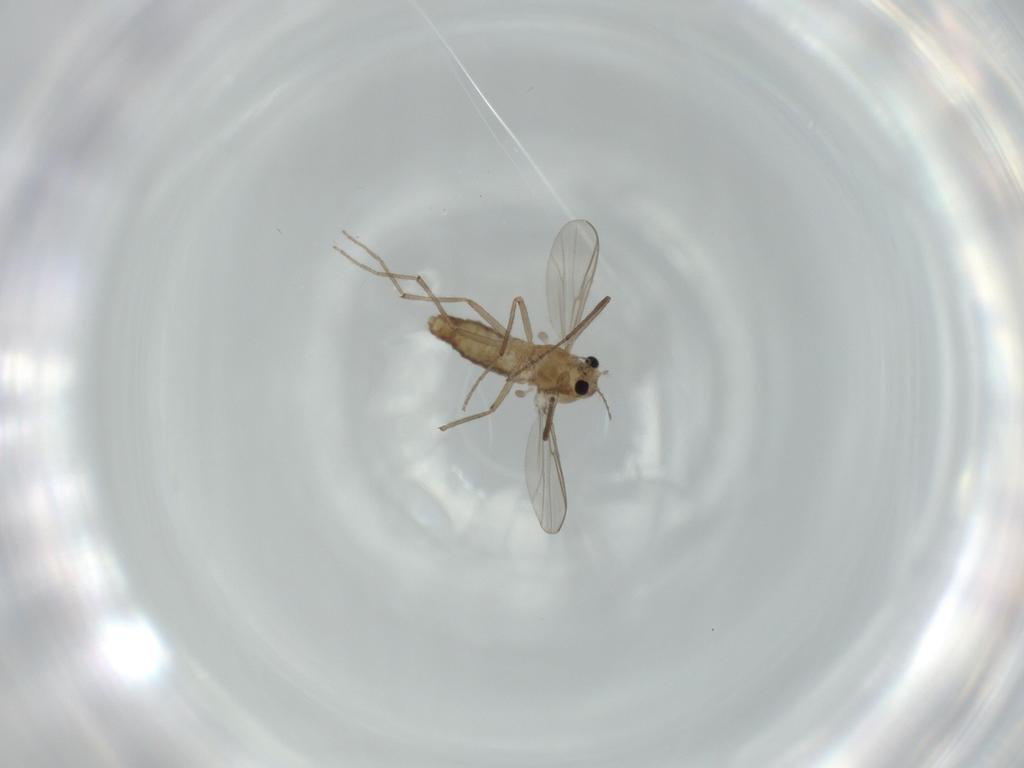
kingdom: Animalia
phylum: Arthropoda
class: Insecta
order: Diptera
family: Chironomidae
